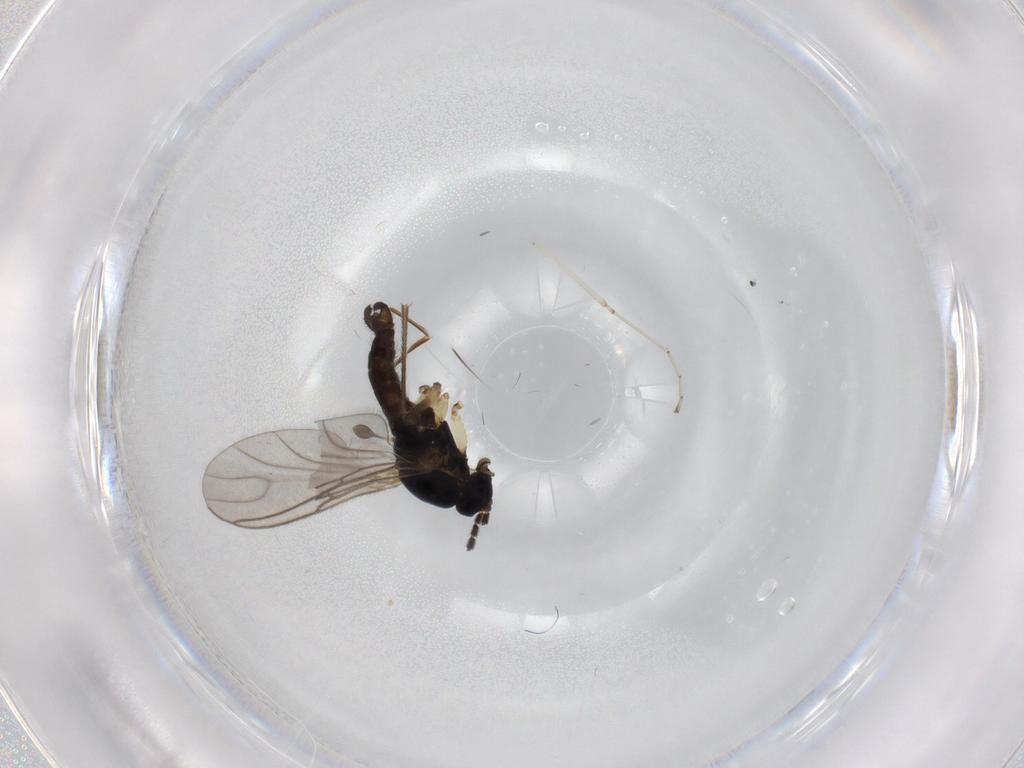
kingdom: Animalia
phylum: Arthropoda
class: Insecta
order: Diptera
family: Sciaridae
